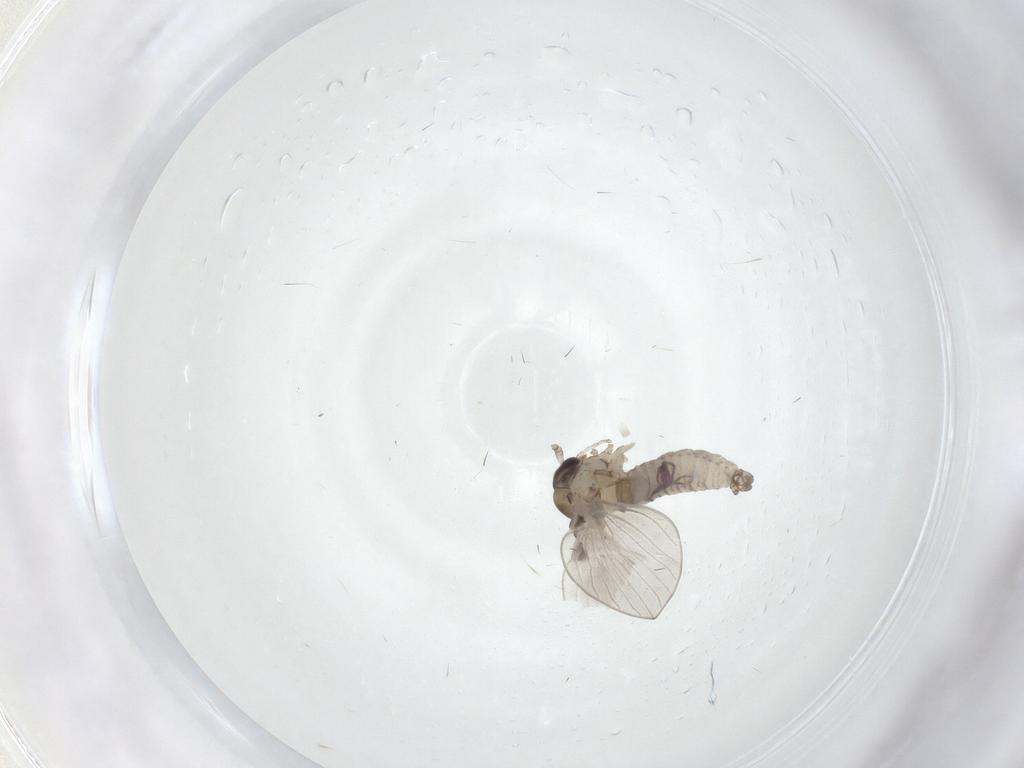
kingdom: Animalia
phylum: Arthropoda
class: Insecta
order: Diptera
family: Psychodidae
